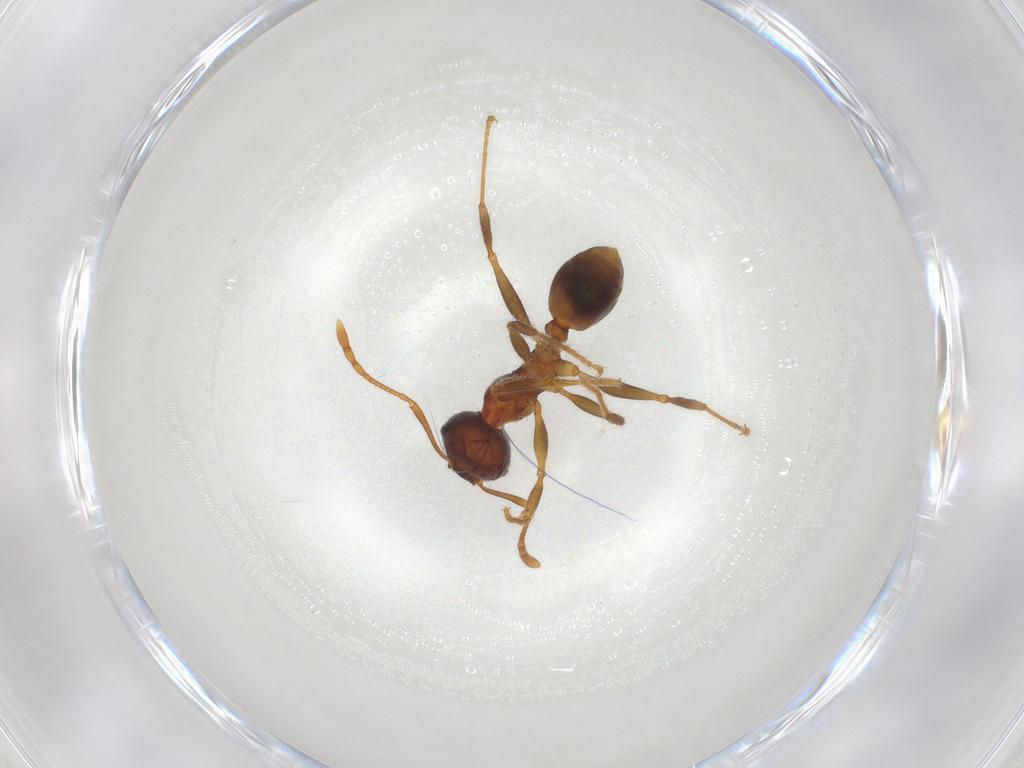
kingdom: Animalia
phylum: Arthropoda
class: Insecta
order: Hymenoptera
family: Formicidae
